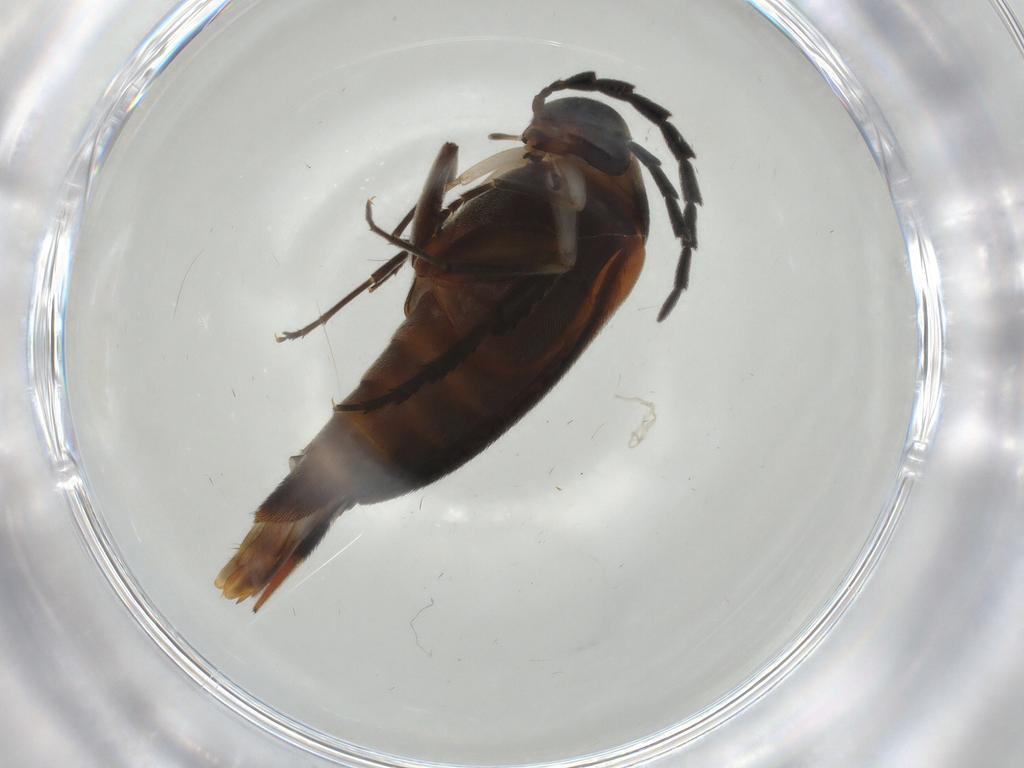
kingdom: Animalia
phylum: Arthropoda
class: Insecta
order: Coleoptera
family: Mordellidae
